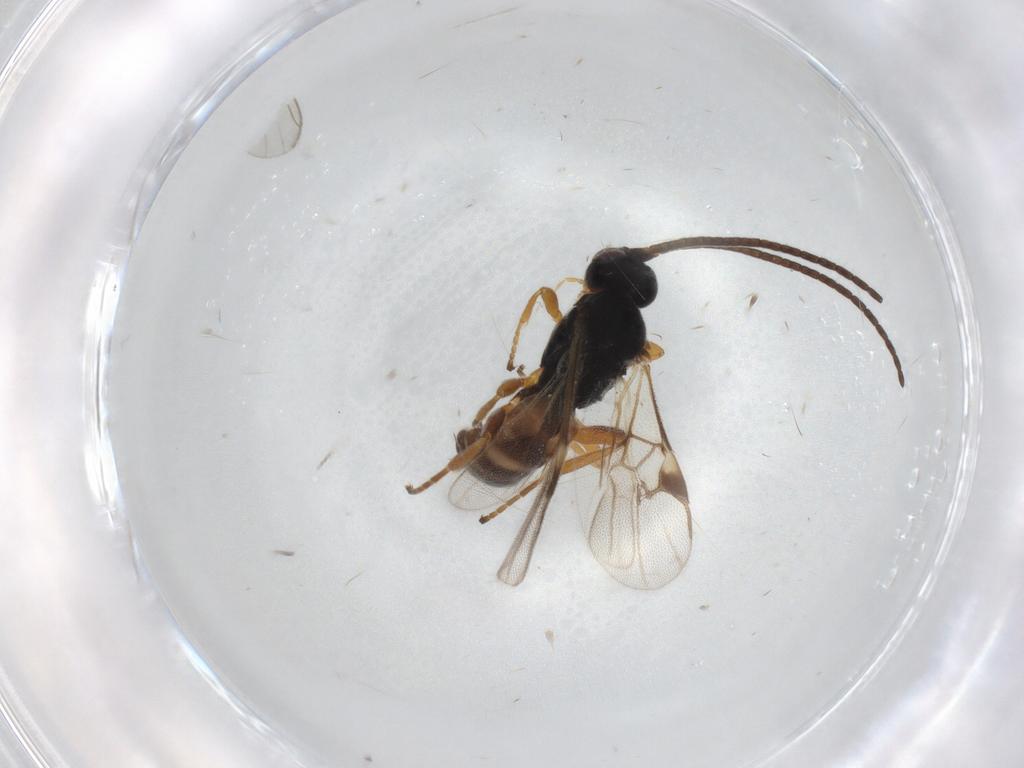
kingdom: Animalia
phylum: Arthropoda
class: Insecta
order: Hymenoptera
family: Braconidae
